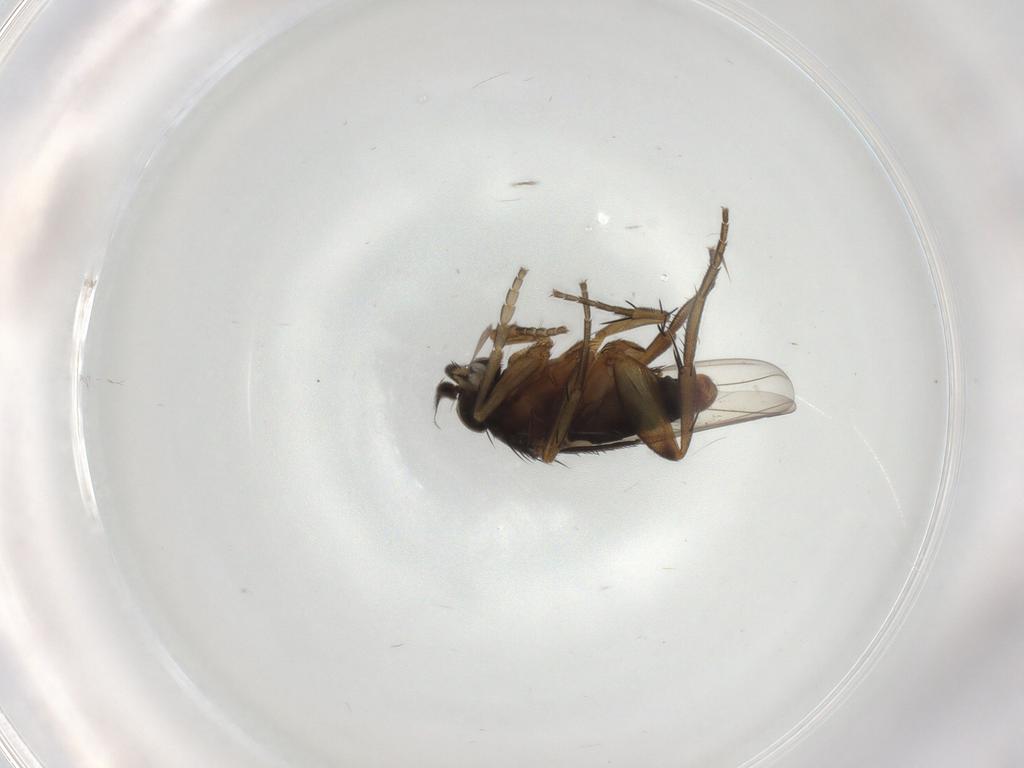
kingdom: Animalia
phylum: Arthropoda
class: Insecta
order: Diptera
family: Phoridae
